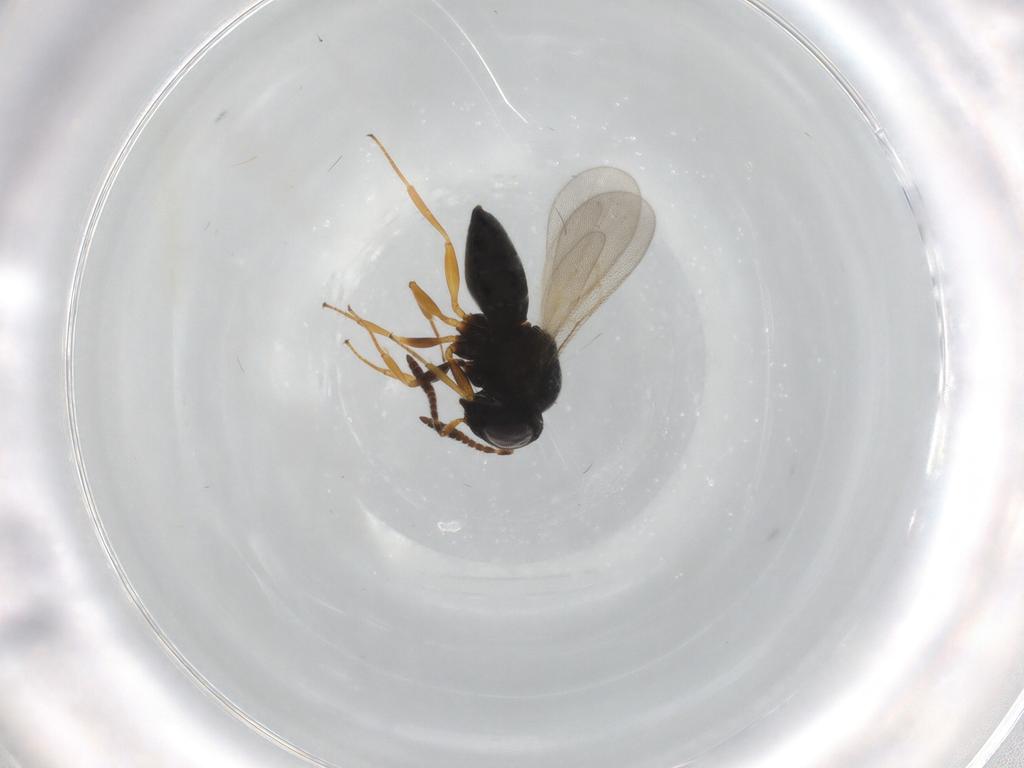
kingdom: Animalia
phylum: Arthropoda
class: Insecta
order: Hymenoptera
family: Scelionidae
